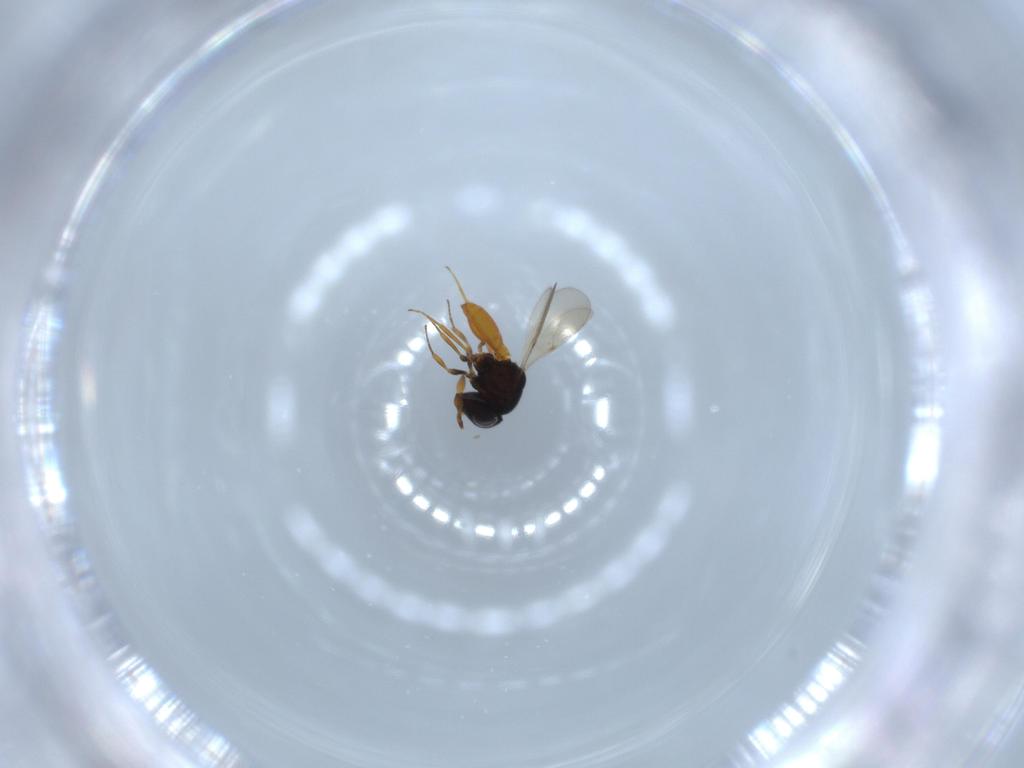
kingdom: Animalia
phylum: Arthropoda
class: Insecta
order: Hymenoptera
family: Scelionidae
